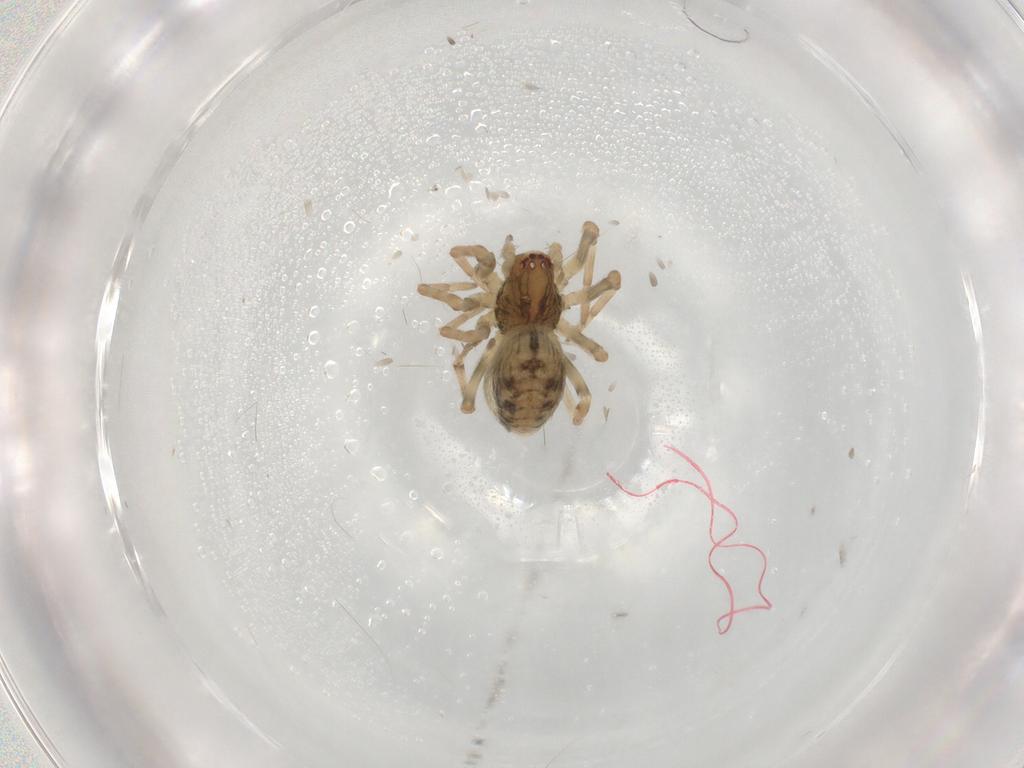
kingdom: Animalia
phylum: Arthropoda
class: Arachnida
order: Araneae
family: Dictynidae
